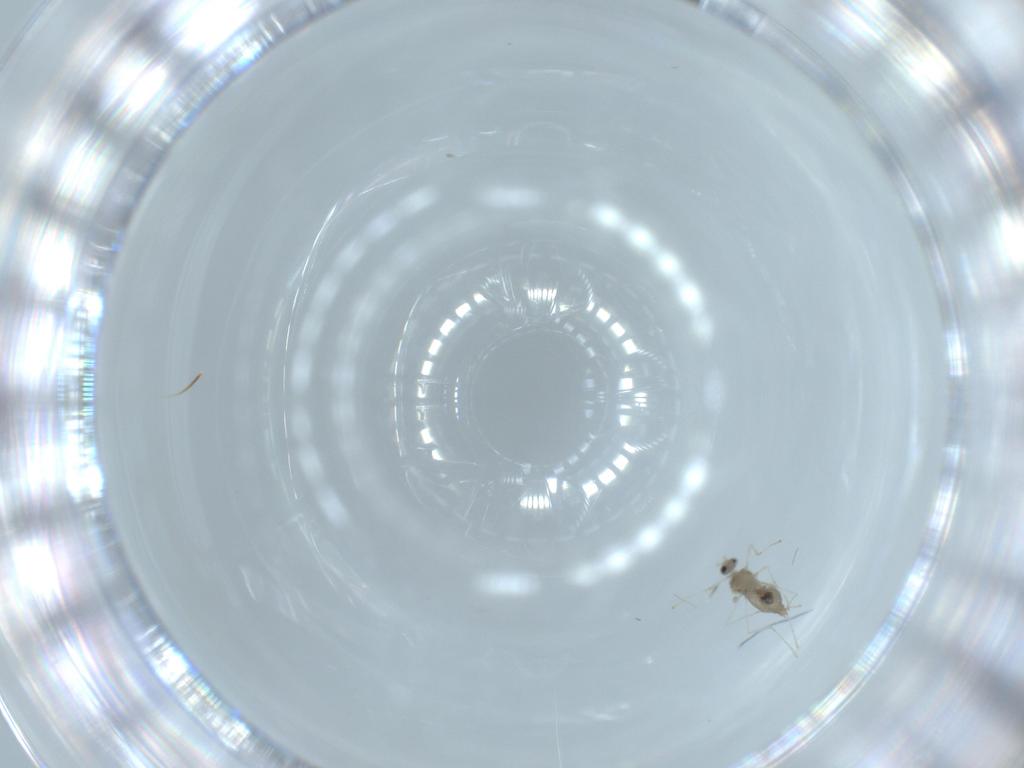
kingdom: Animalia
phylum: Arthropoda
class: Insecta
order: Diptera
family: Cecidomyiidae
